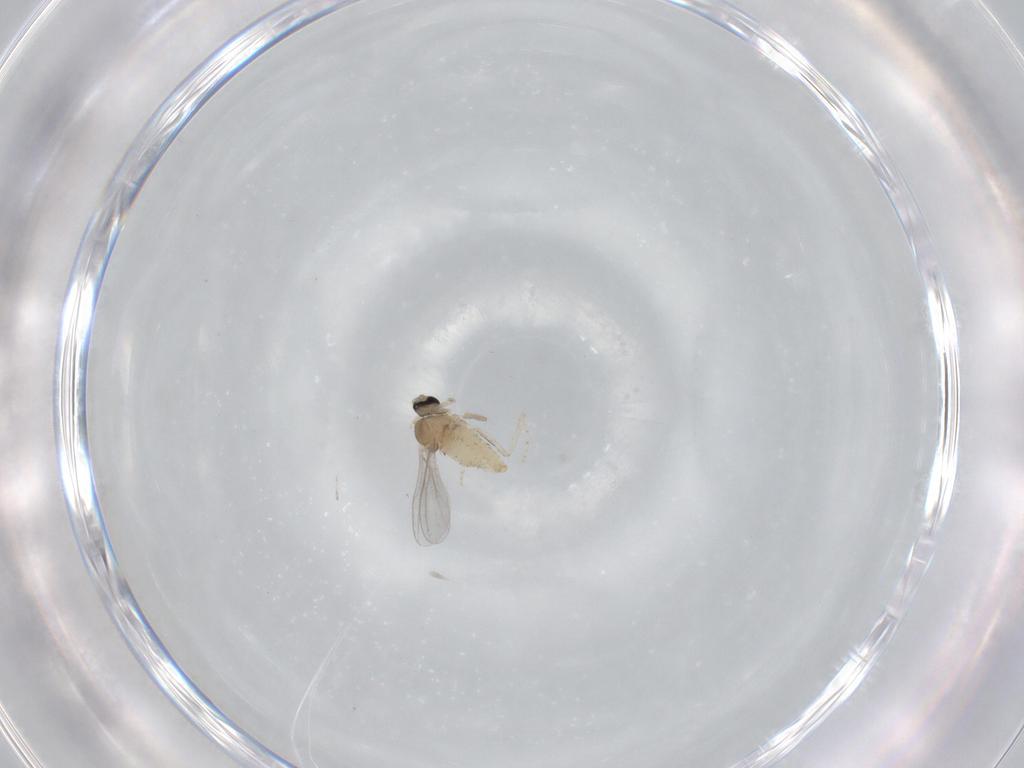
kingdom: Animalia
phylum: Arthropoda
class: Insecta
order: Diptera
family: Cecidomyiidae
